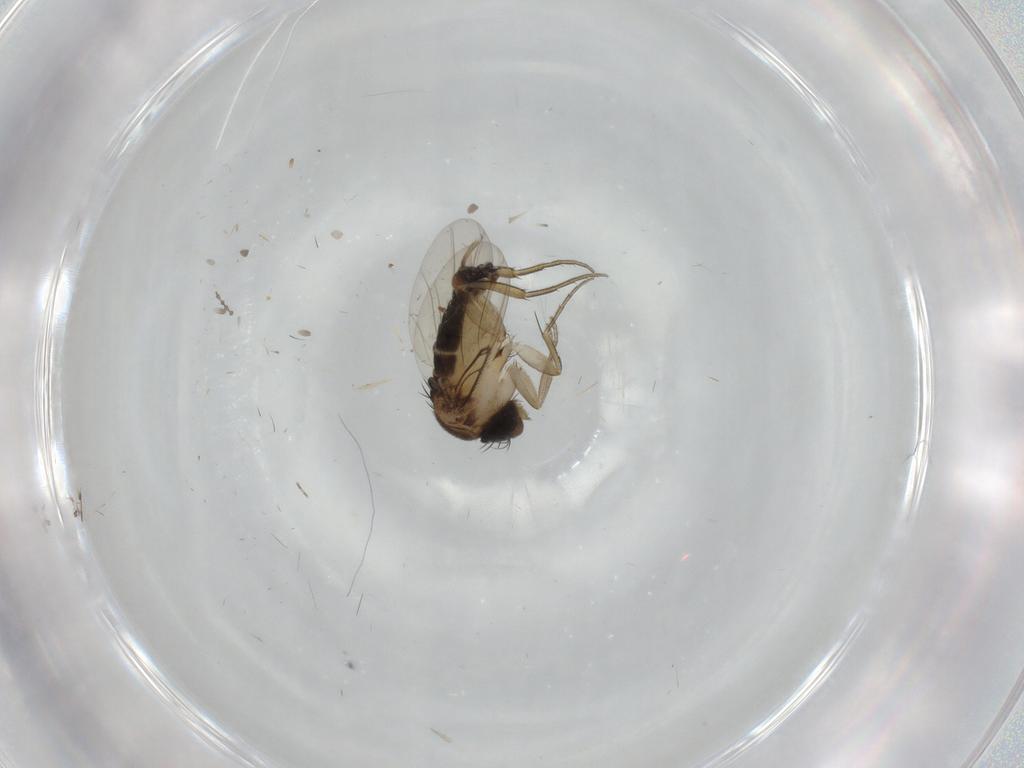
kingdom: Animalia
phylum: Arthropoda
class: Insecta
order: Diptera
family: Phoridae
